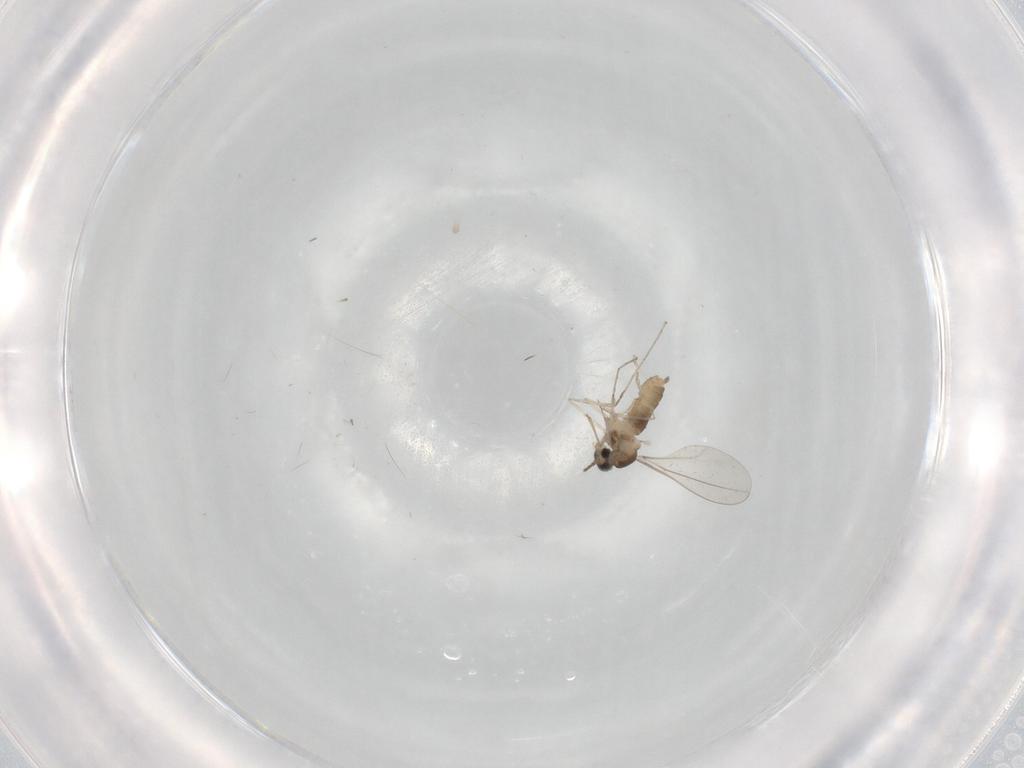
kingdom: Animalia
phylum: Arthropoda
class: Insecta
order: Diptera
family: Cecidomyiidae
